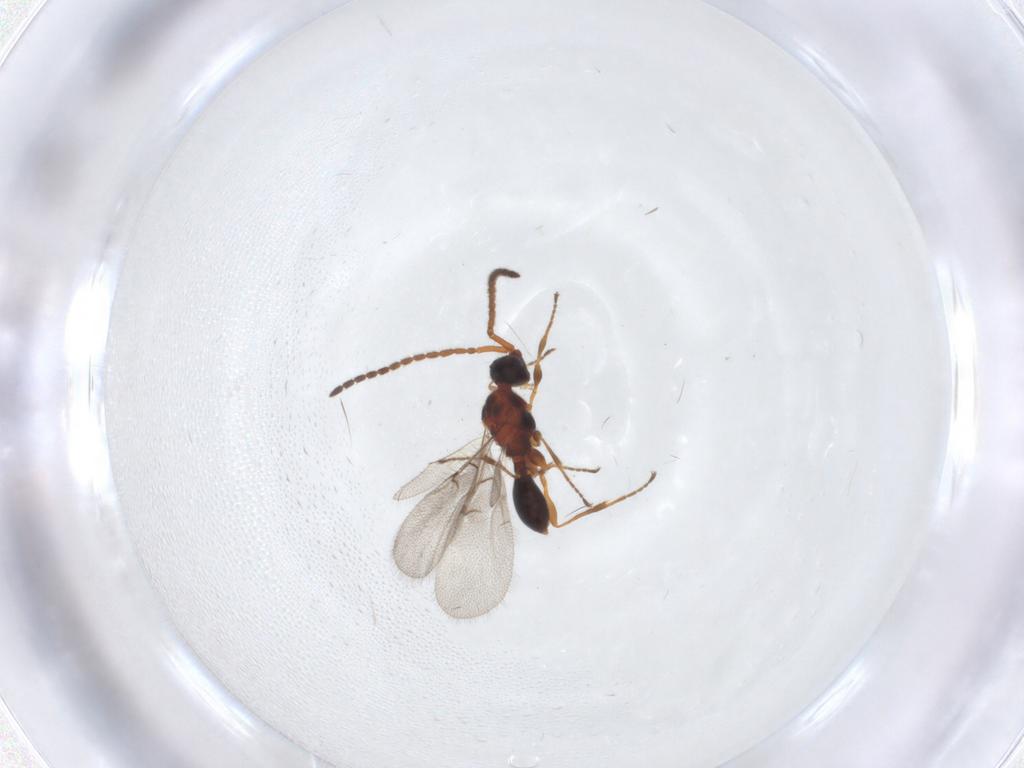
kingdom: Animalia
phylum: Arthropoda
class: Insecta
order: Hymenoptera
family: Diapriidae
